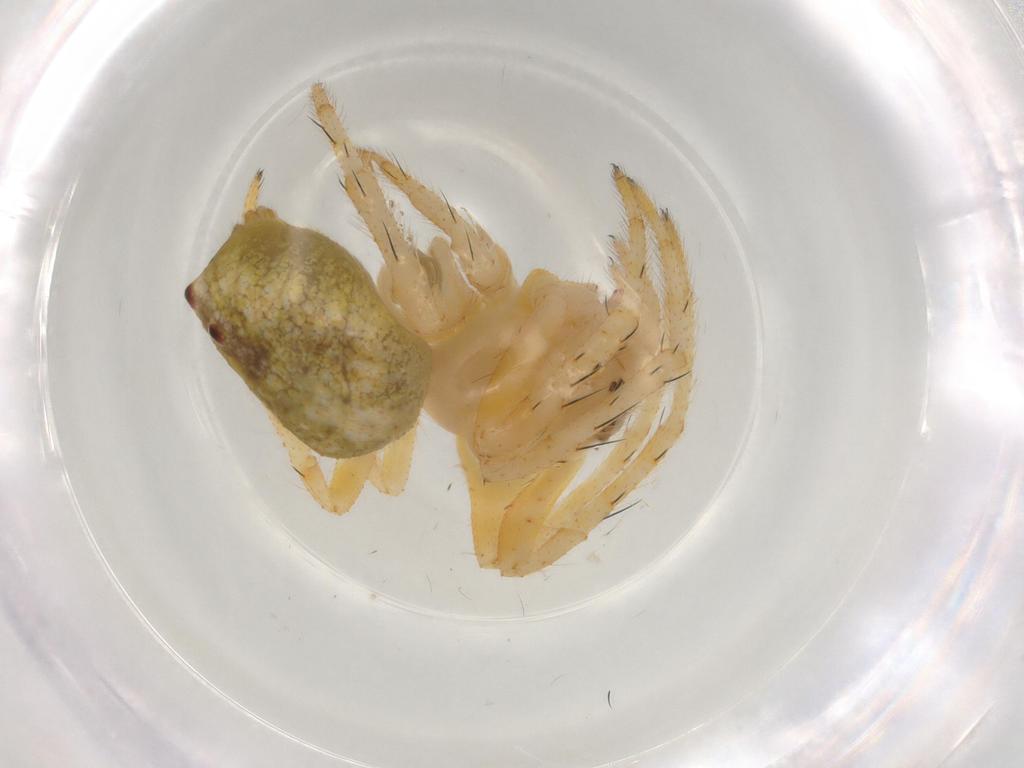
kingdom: Animalia
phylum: Arthropoda
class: Arachnida
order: Araneae
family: Araneidae
